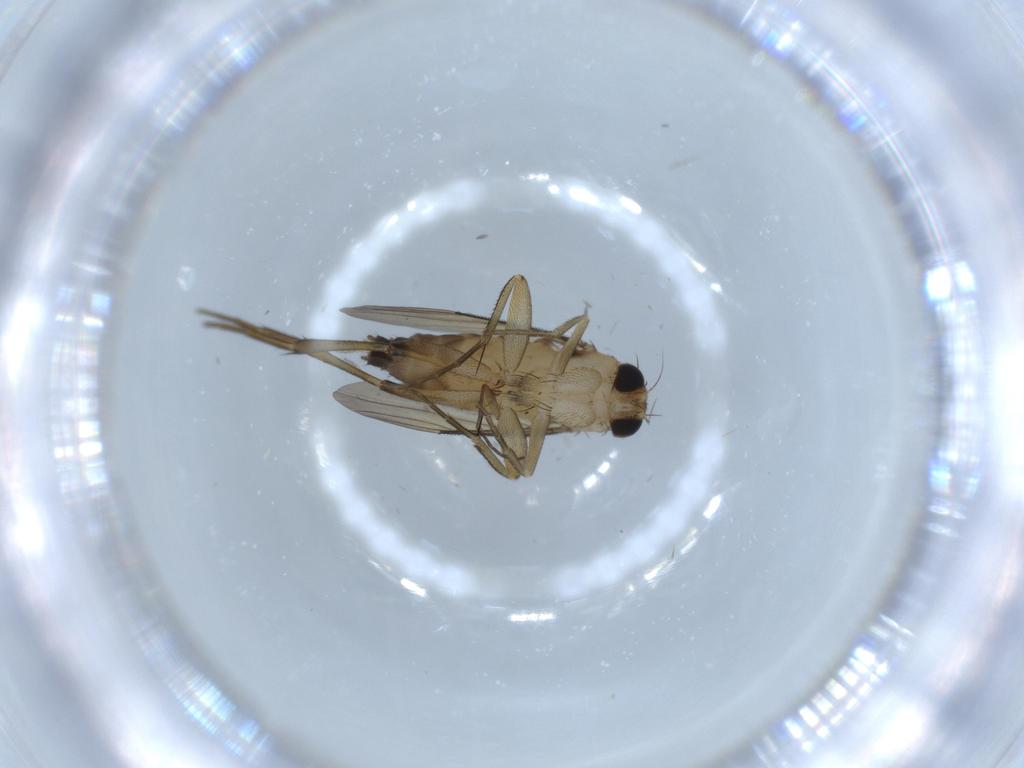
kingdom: Animalia
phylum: Arthropoda
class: Insecta
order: Diptera
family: Phoridae
